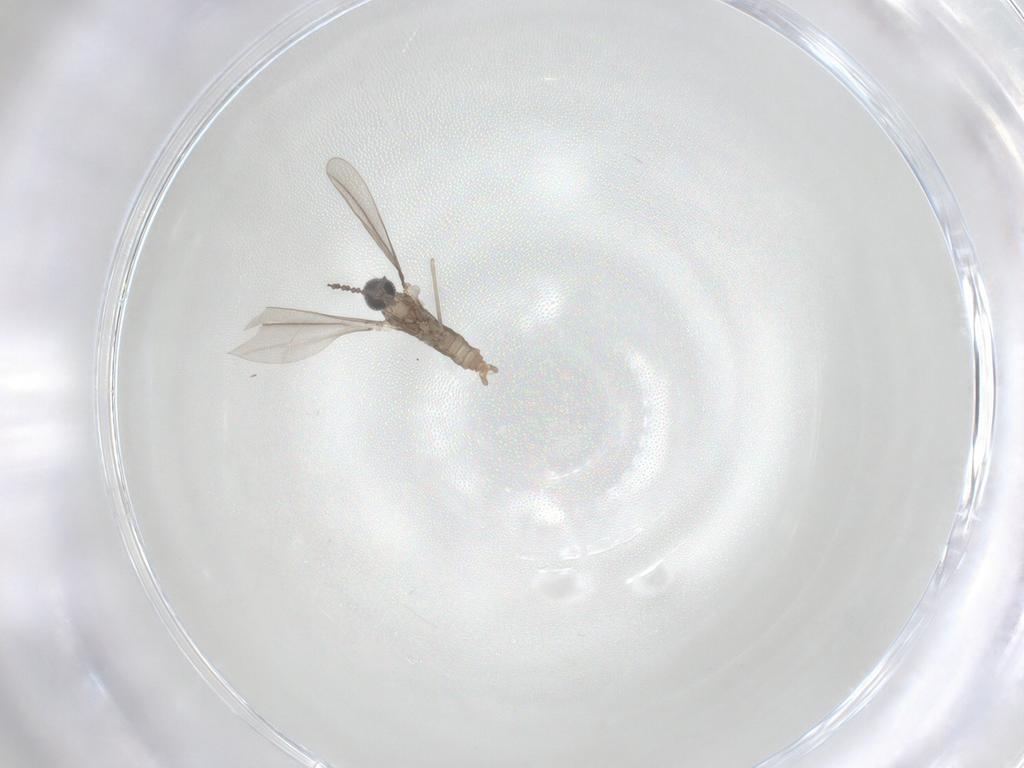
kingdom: Animalia
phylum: Arthropoda
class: Insecta
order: Diptera
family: Cecidomyiidae
